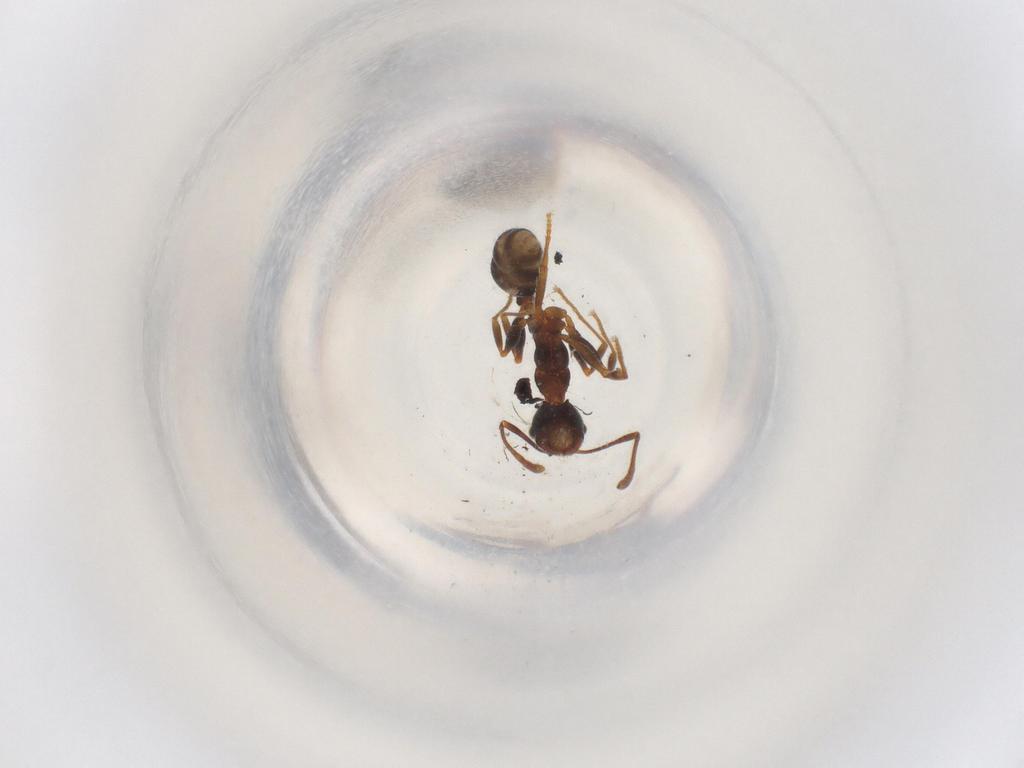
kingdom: Animalia
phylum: Arthropoda
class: Insecta
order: Hymenoptera
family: Formicidae
